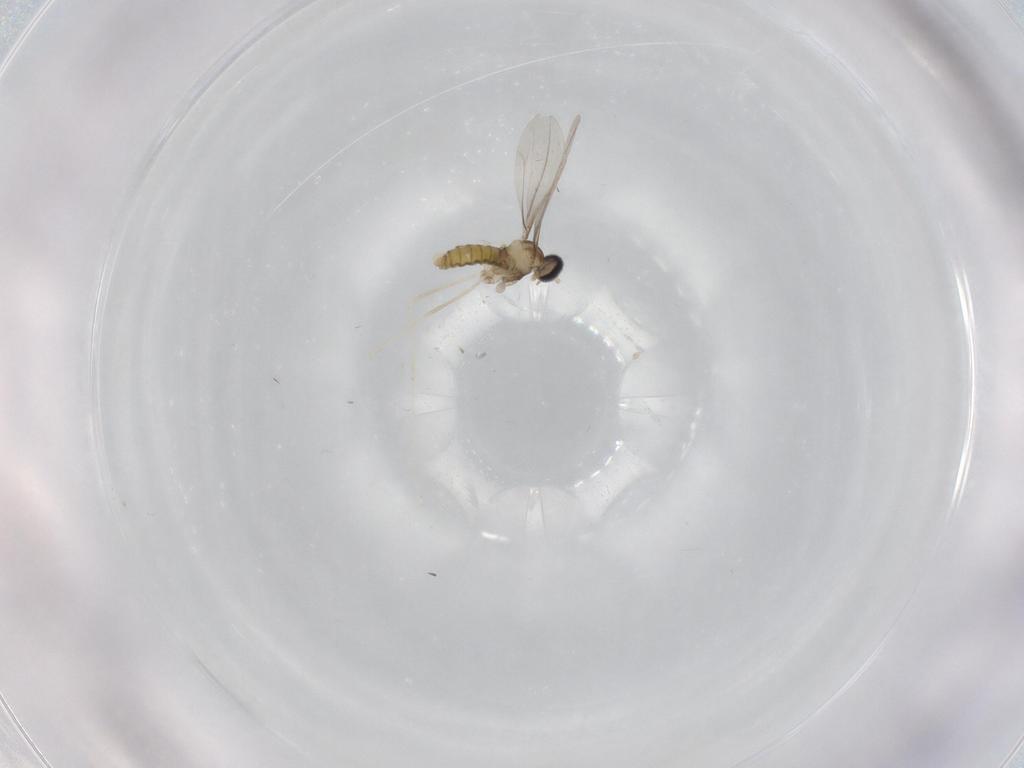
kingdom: Animalia
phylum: Arthropoda
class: Insecta
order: Diptera
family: Cecidomyiidae
